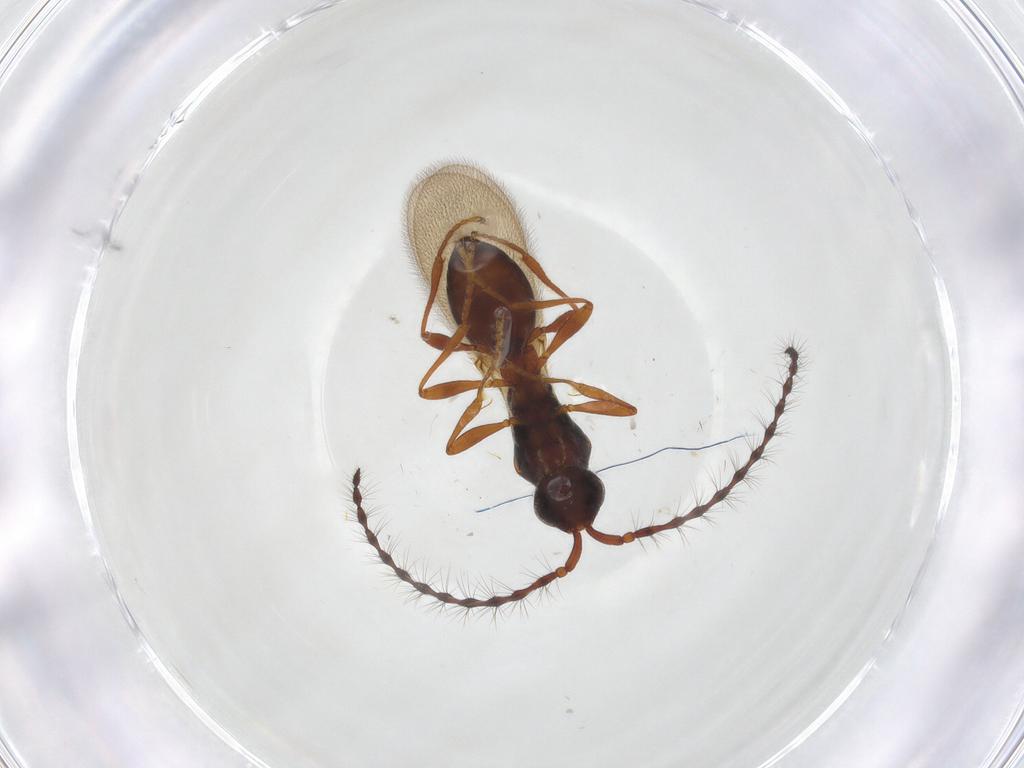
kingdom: Animalia
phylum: Arthropoda
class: Insecta
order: Hymenoptera
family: Diapriidae
